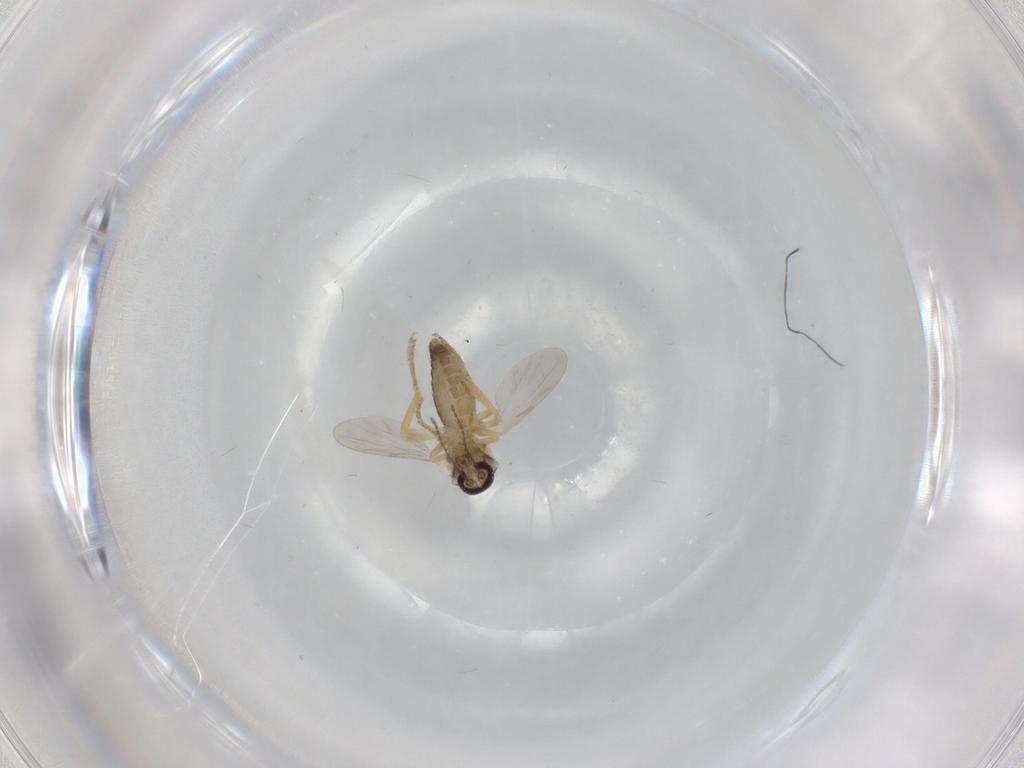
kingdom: Animalia
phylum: Arthropoda
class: Insecta
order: Diptera
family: Ceratopogonidae
